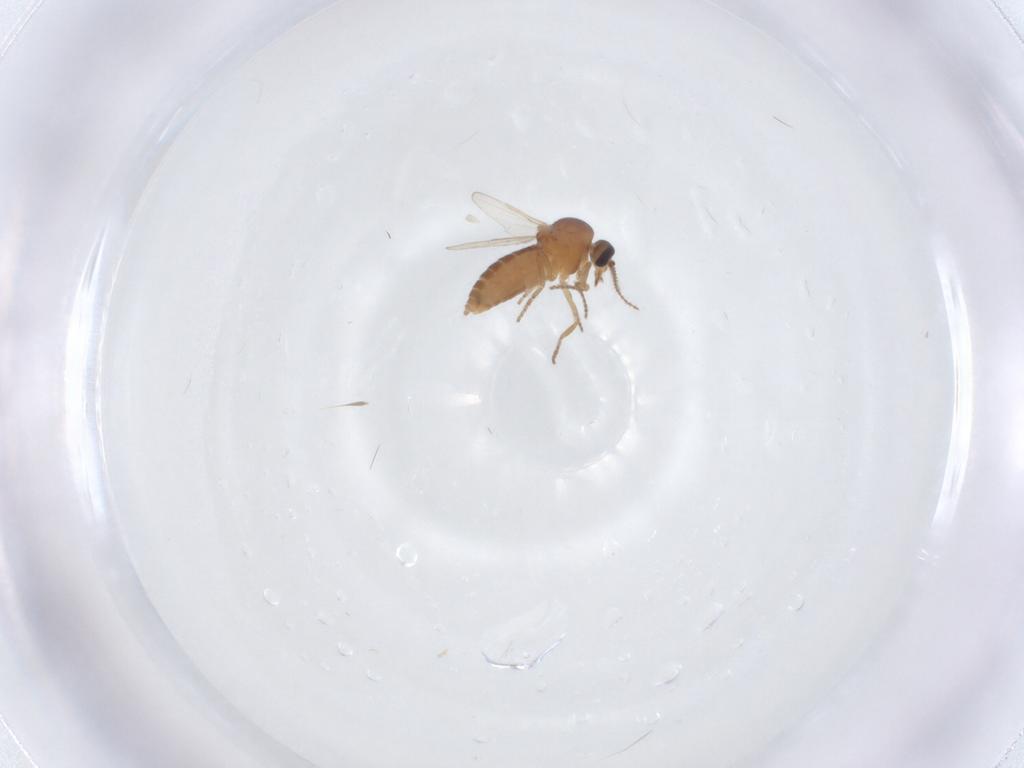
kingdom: Animalia
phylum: Arthropoda
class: Insecta
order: Diptera
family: Ceratopogonidae
